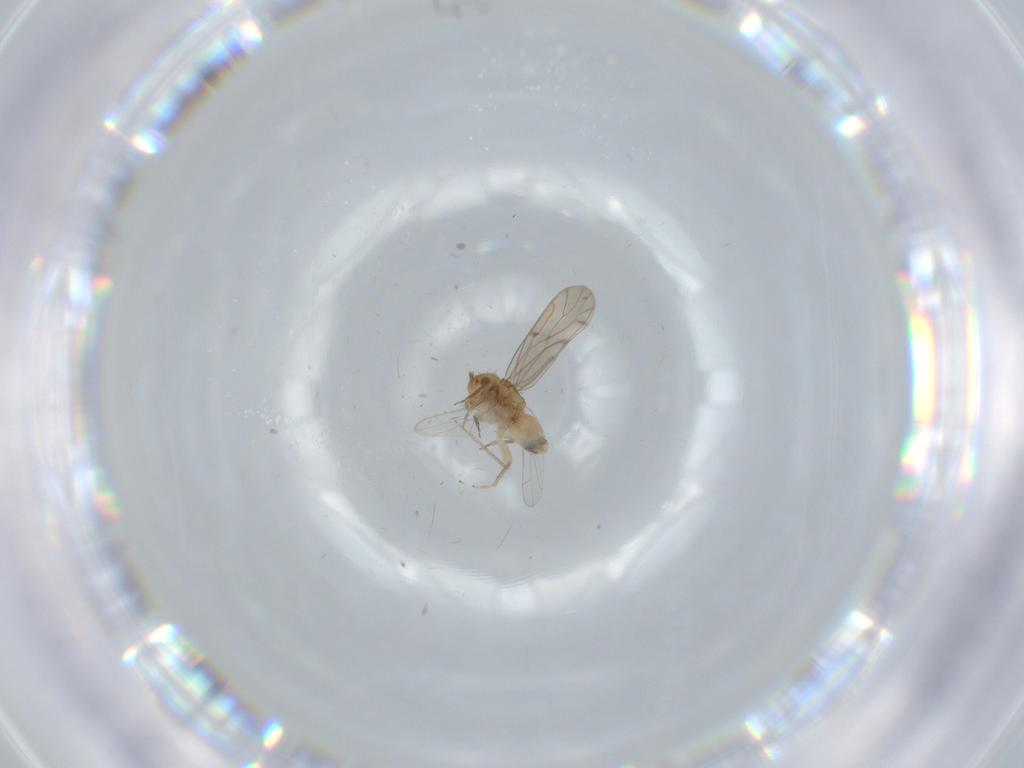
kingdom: Animalia
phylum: Arthropoda
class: Insecta
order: Psocodea
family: Ectopsocidae
